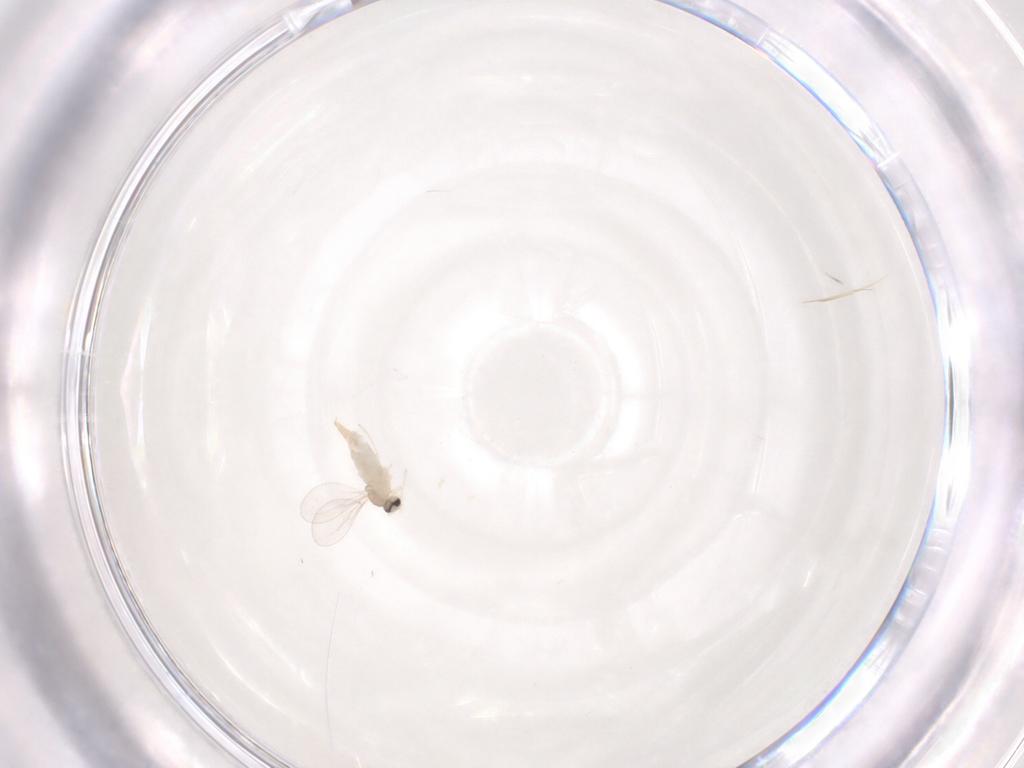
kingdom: Animalia
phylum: Arthropoda
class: Insecta
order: Diptera
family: Cecidomyiidae
